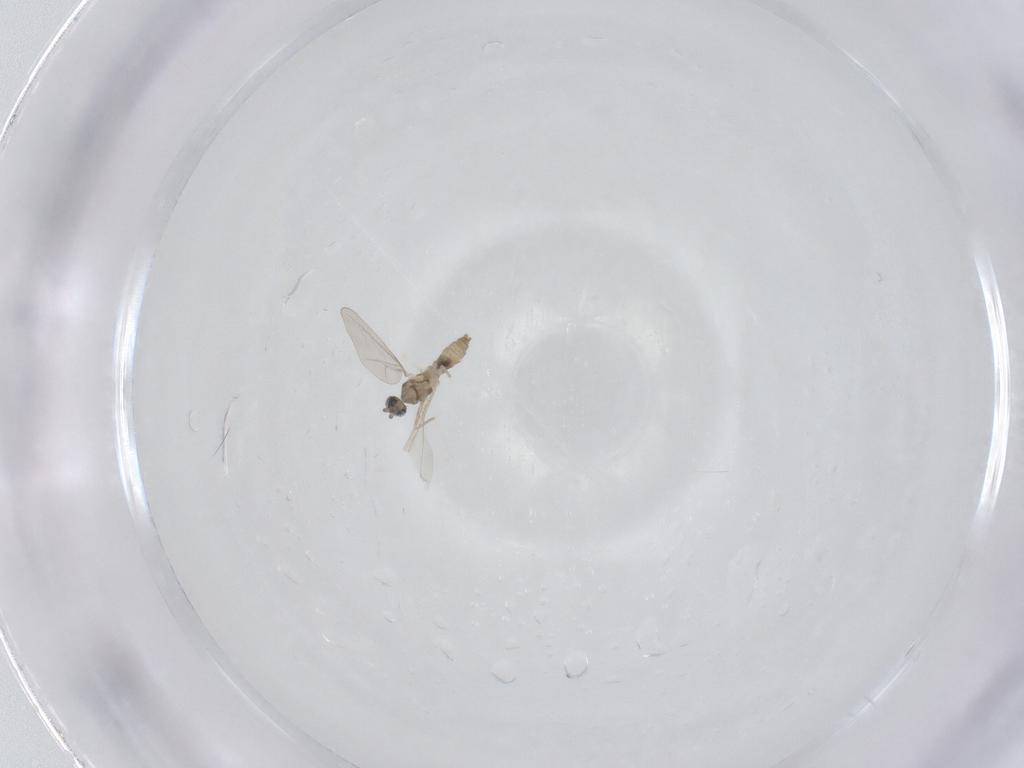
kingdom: Animalia
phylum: Arthropoda
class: Insecta
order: Diptera
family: Cecidomyiidae
